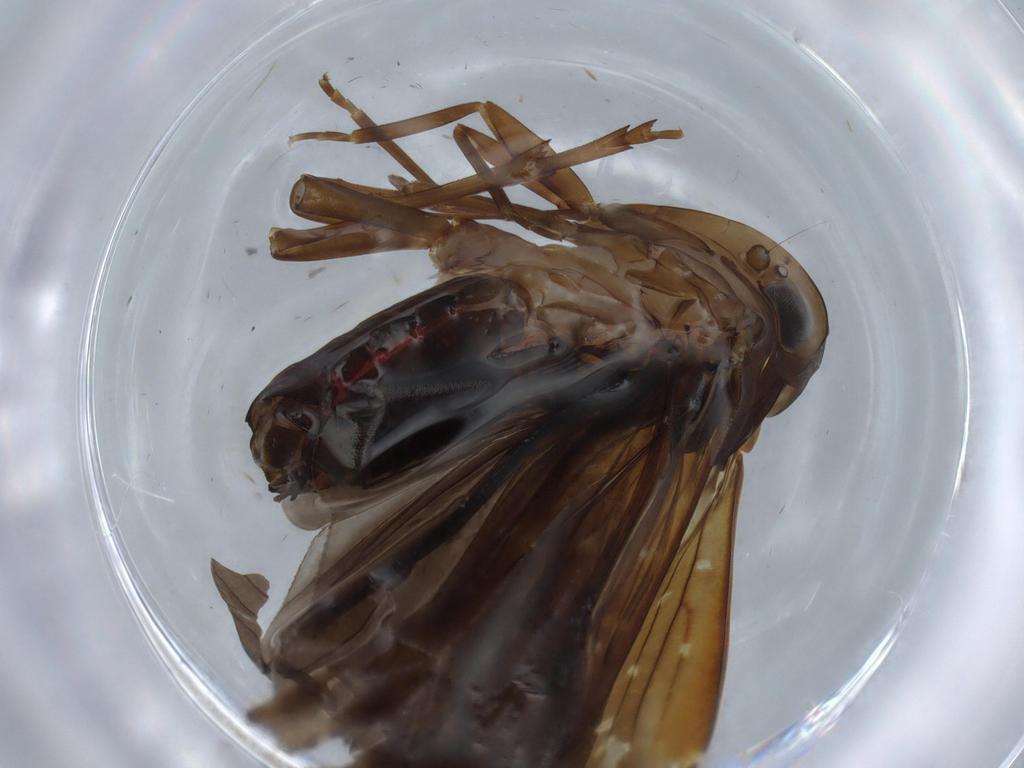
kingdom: Animalia
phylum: Arthropoda
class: Insecta
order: Hemiptera
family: Achilidae
